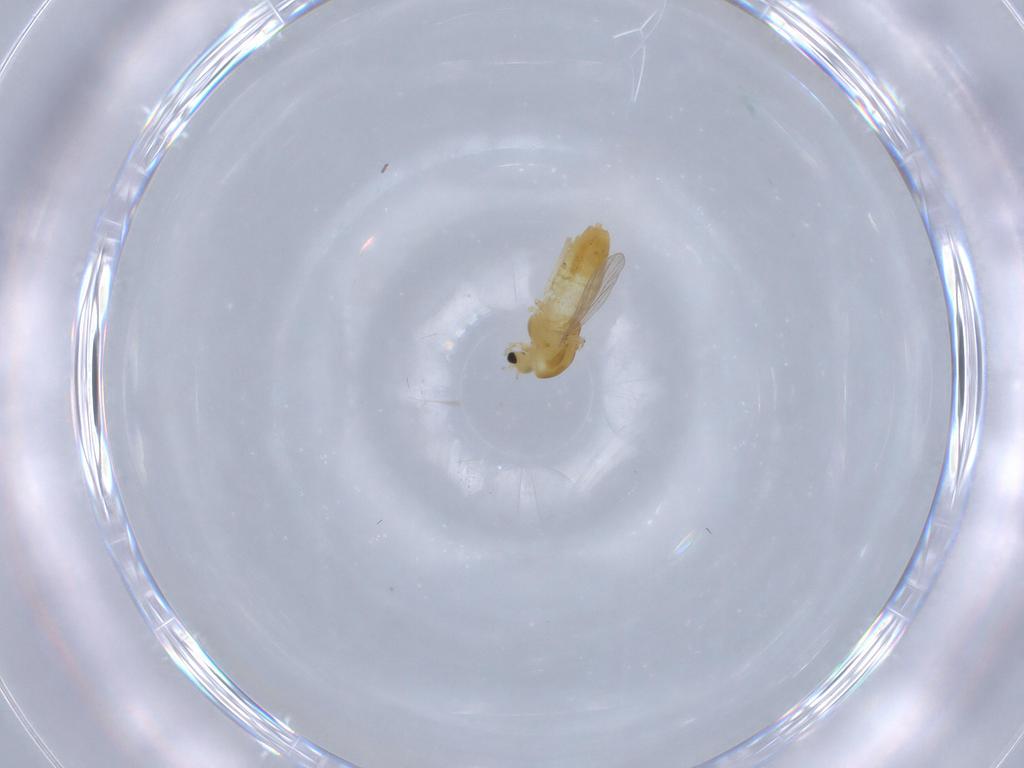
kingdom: Animalia
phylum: Arthropoda
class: Insecta
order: Diptera
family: Chironomidae
